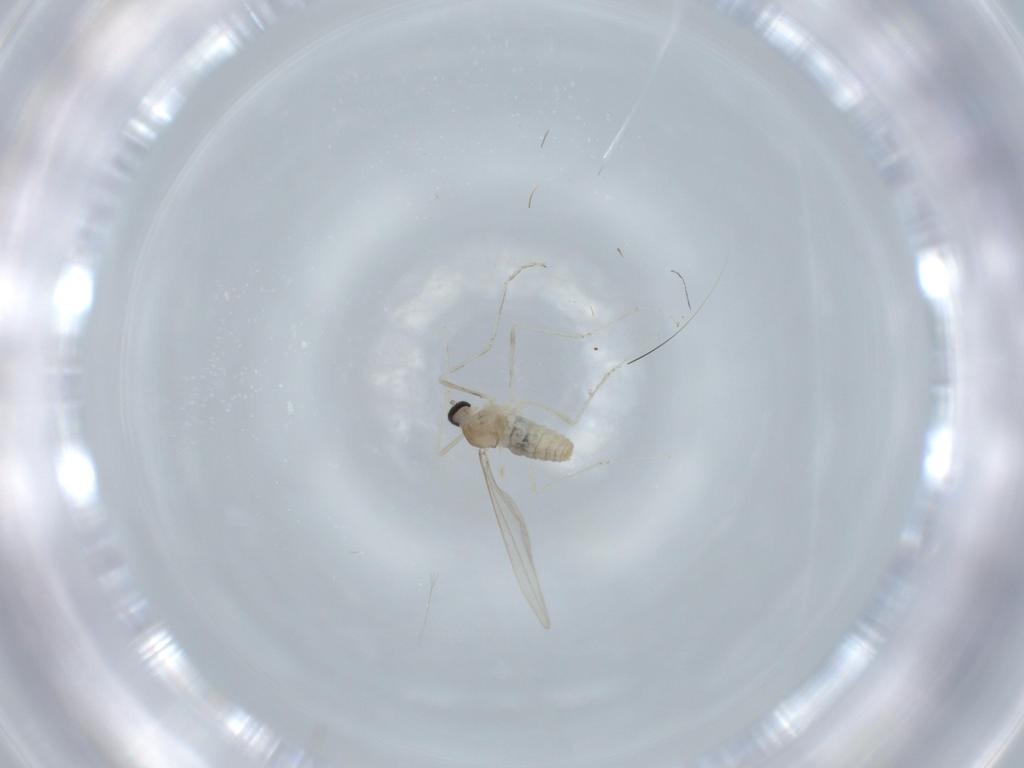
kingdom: Animalia
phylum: Arthropoda
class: Insecta
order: Diptera
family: Cecidomyiidae
